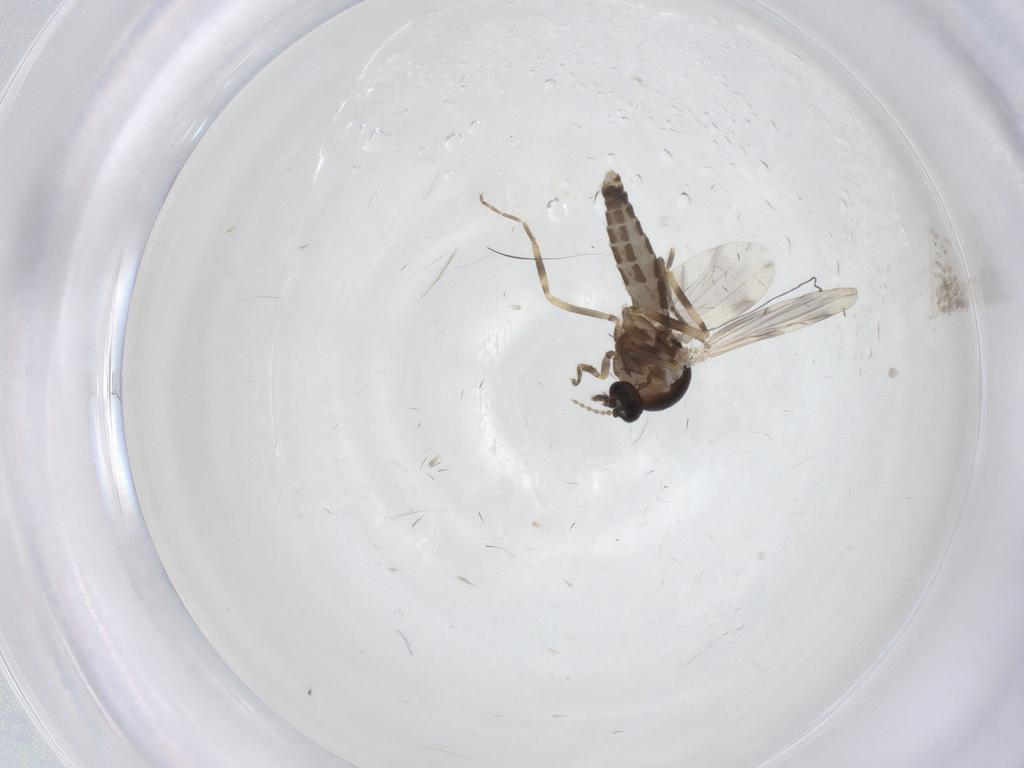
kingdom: Animalia
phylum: Arthropoda
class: Insecta
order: Diptera
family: Ceratopogonidae
